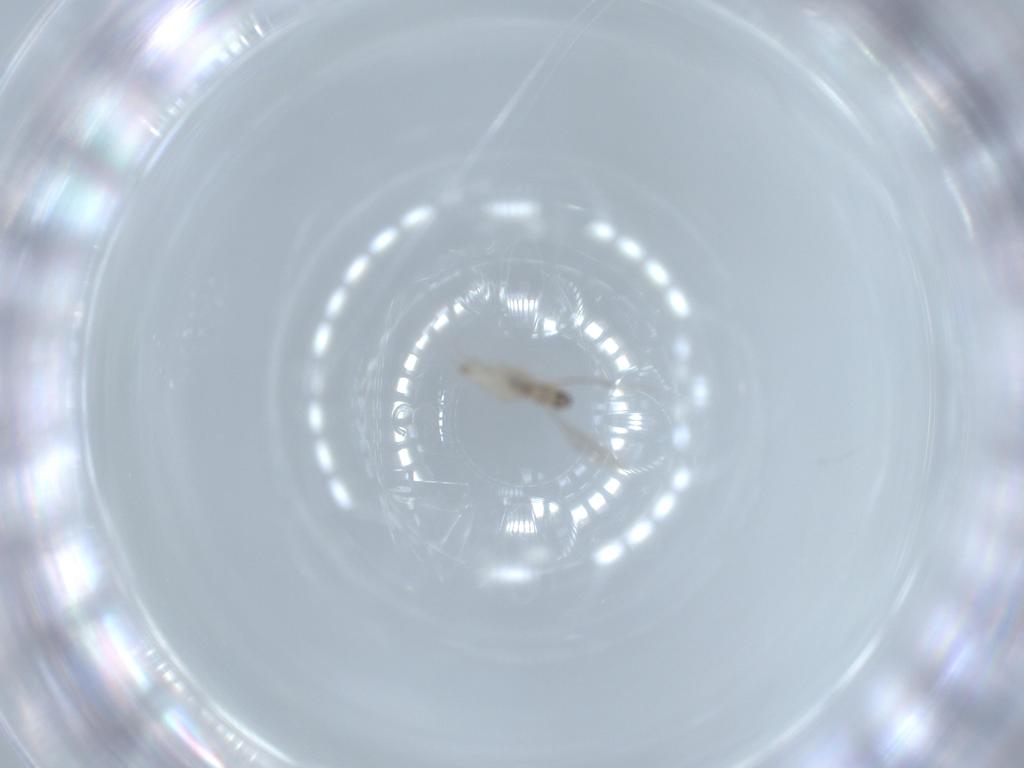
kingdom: Animalia
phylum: Arthropoda
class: Insecta
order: Diptera
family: Cecidomyiidae
